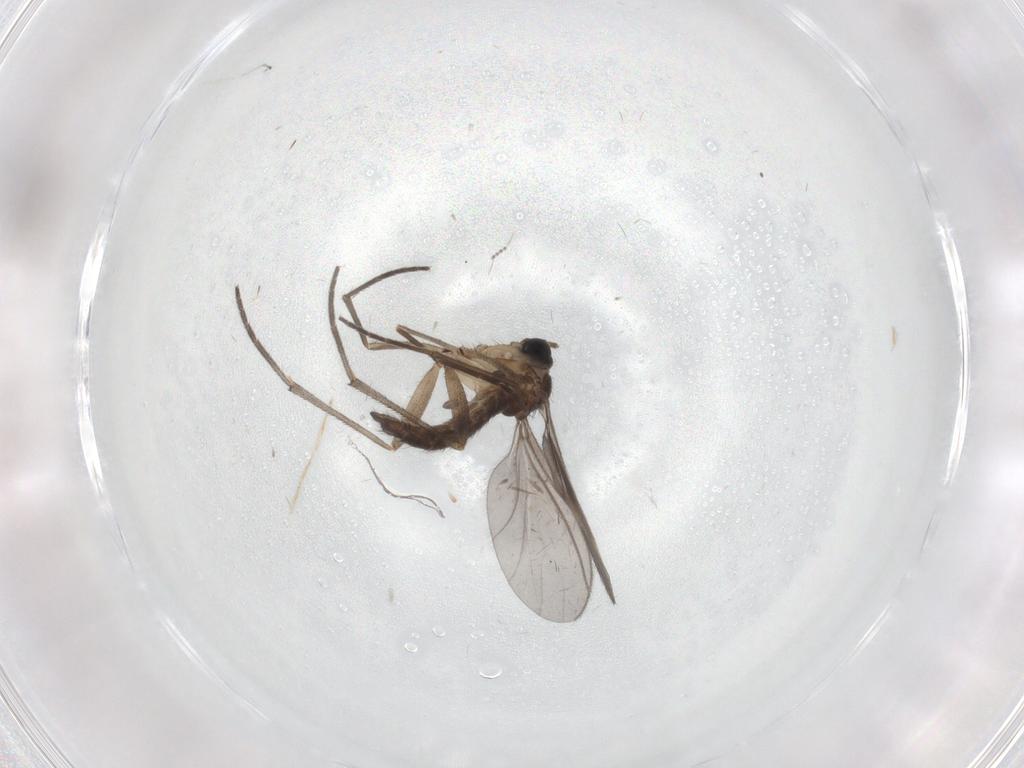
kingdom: Animalia
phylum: Arthropoda
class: Insecta
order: Diptera
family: Sciaridae
